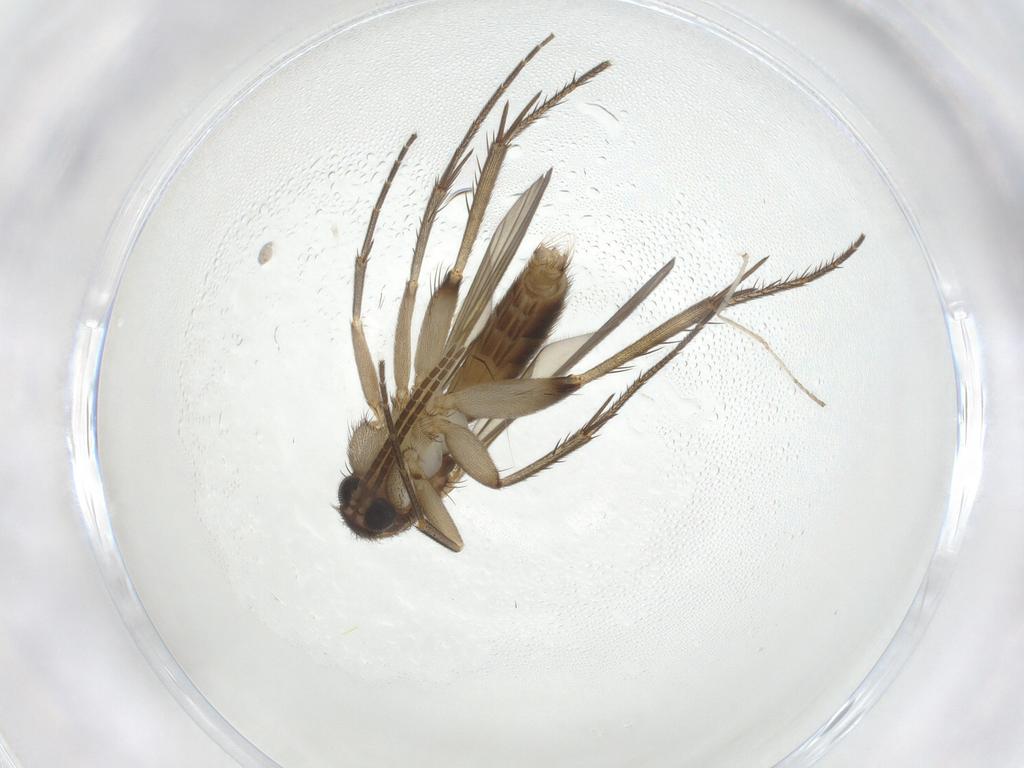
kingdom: Animalia
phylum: Arthropoda
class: Insecta
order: Diptera
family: Mycetophilidae
